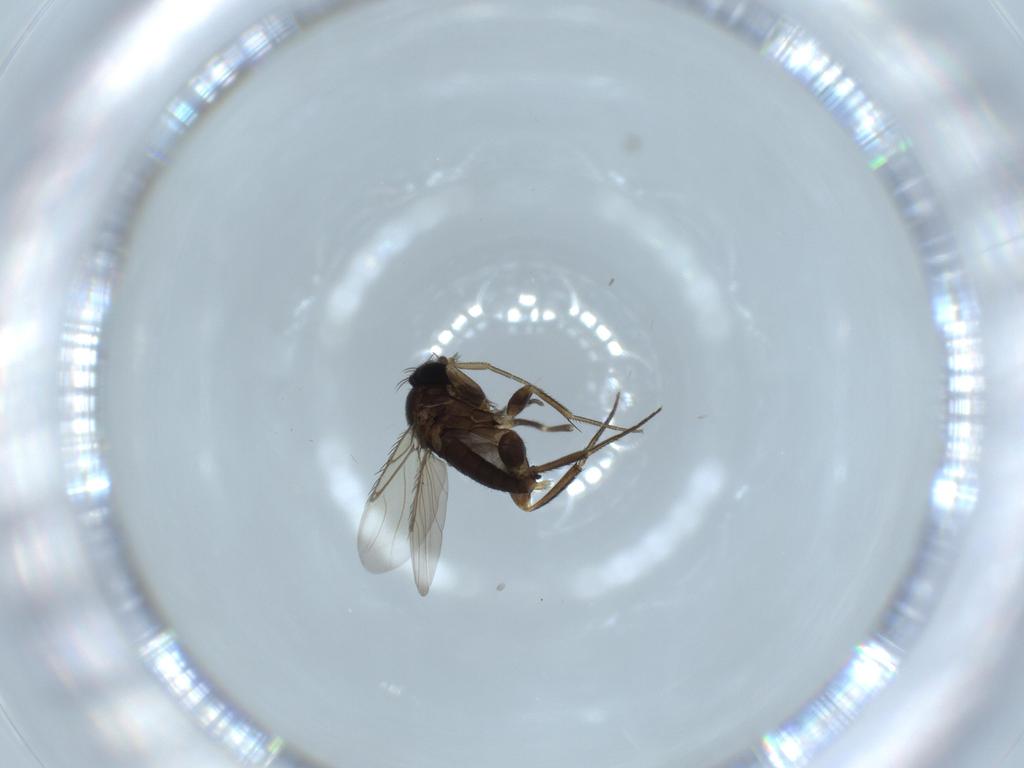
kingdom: Animalia
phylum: Arthropoda
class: Insecta
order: Diptera
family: Phoridae
